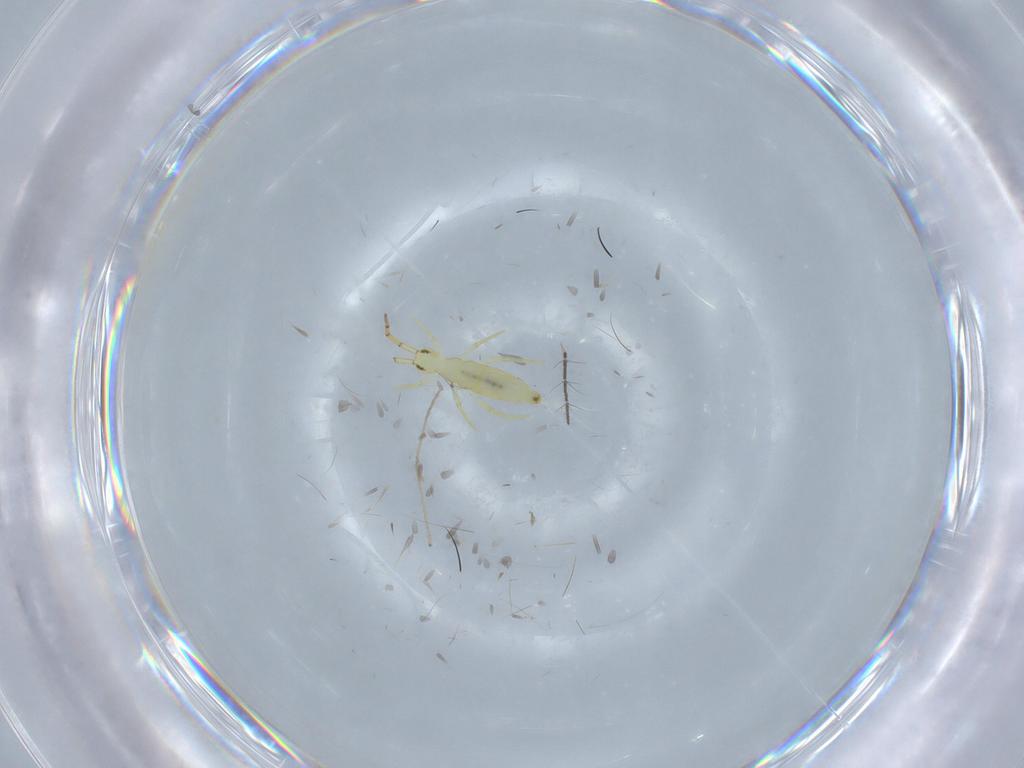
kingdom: Animalia
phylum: Arthropoda
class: Collembola
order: Entomobryomorpha
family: Paronellidae
